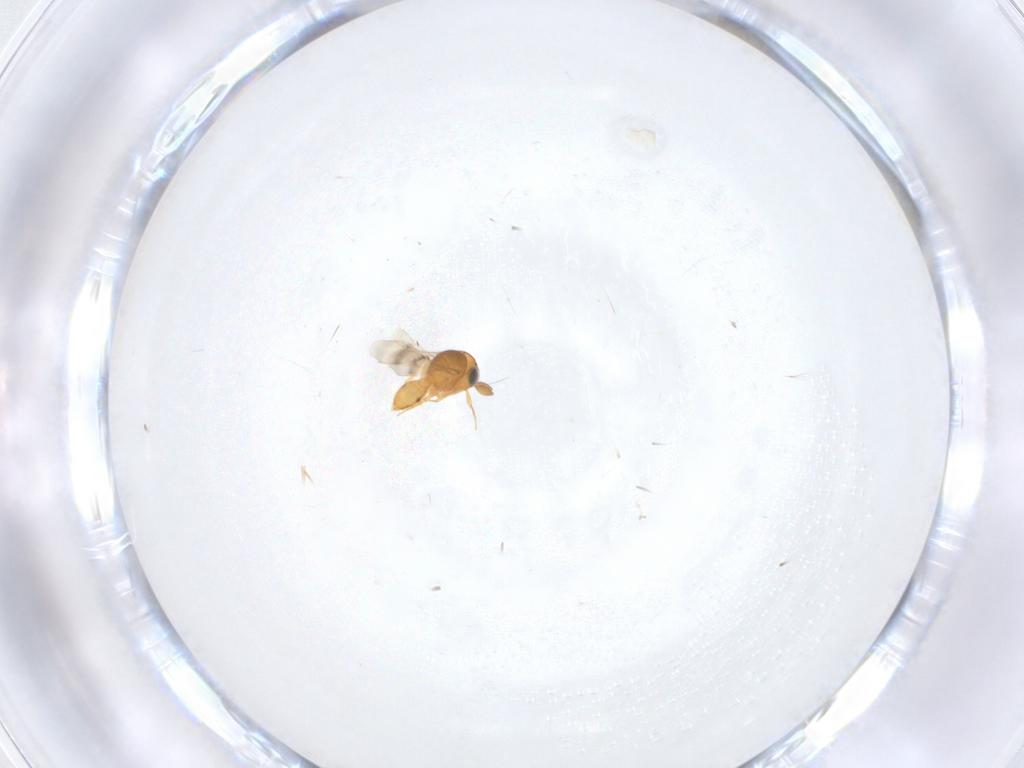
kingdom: Animalia
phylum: Arthropoda
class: Insecta
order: Hymenoptera
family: Scelionidae
